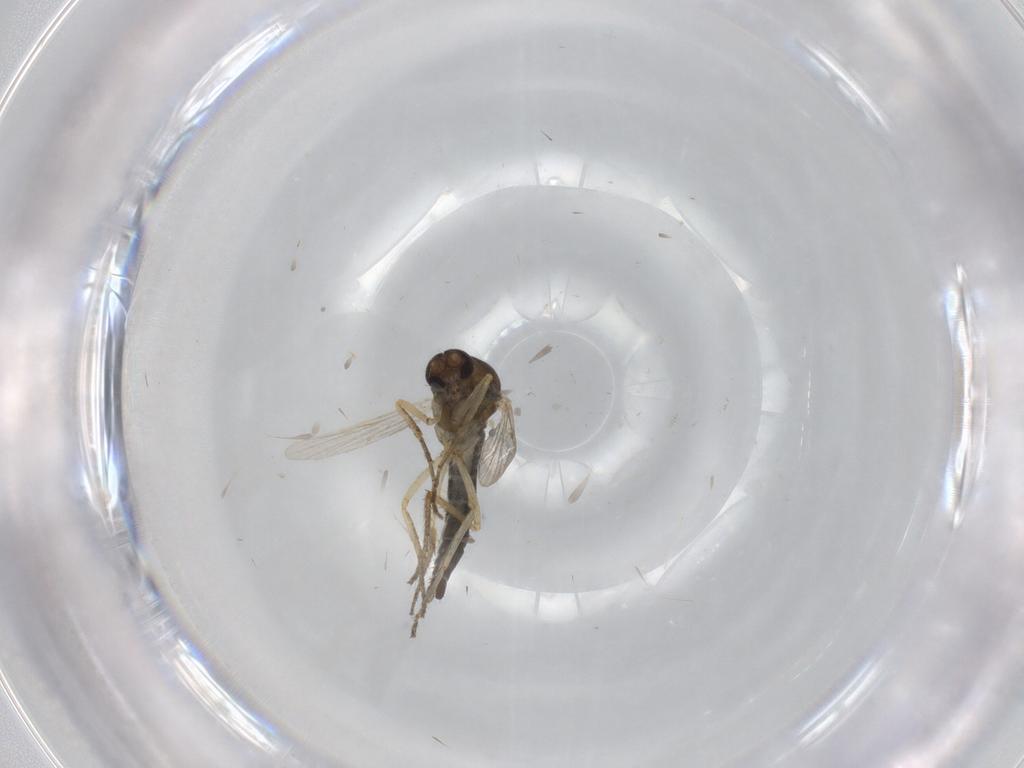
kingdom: Animalia
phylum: Arthropoda
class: Insecta
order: Diptera
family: Ceratopogonidae
